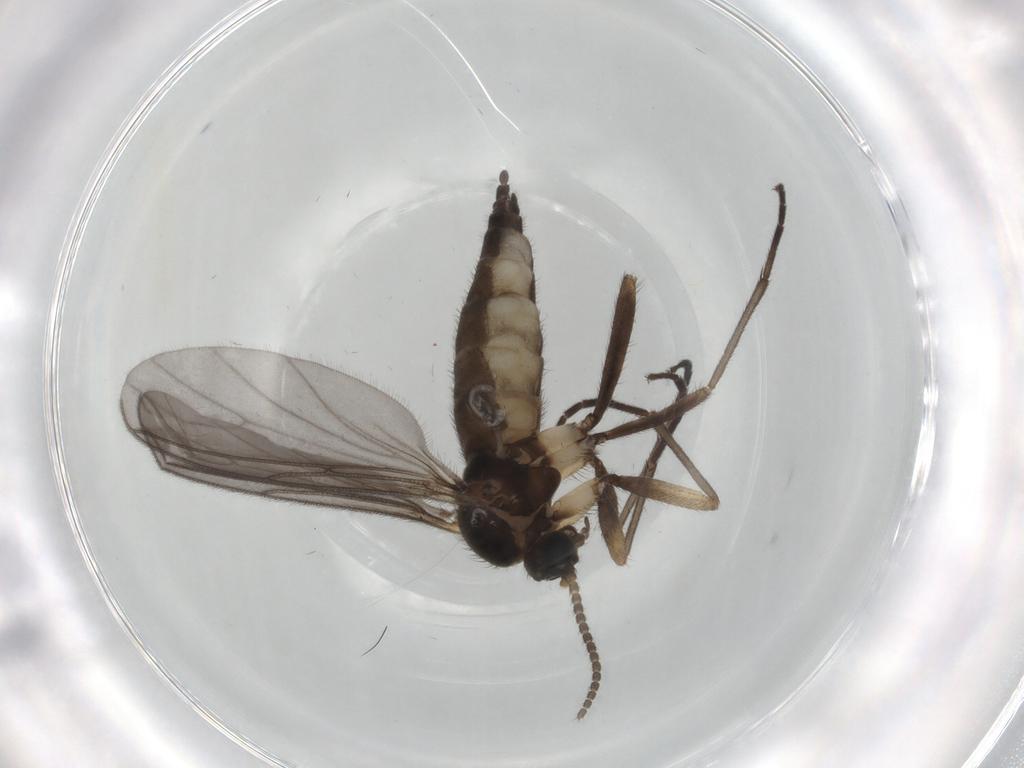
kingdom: Animalia
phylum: Arthropoda
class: Insecta
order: Diptera
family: Sciaridae
